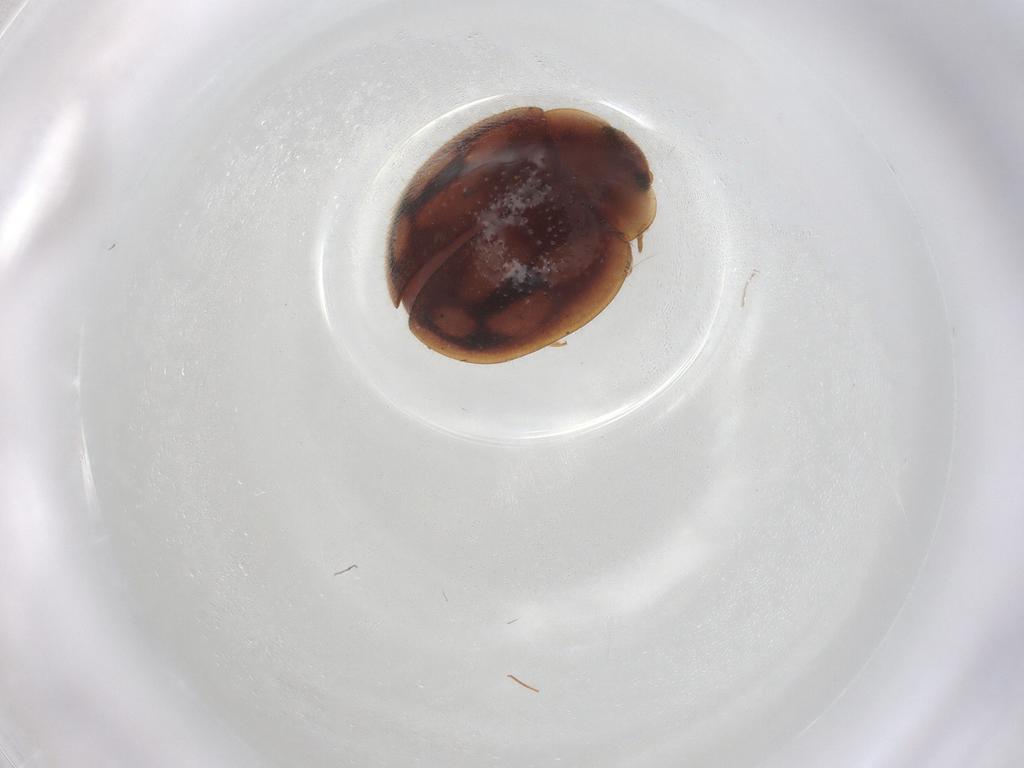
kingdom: Animalia
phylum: Arthropoda
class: Insecta
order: Coleoptera
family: Coccinellidae
